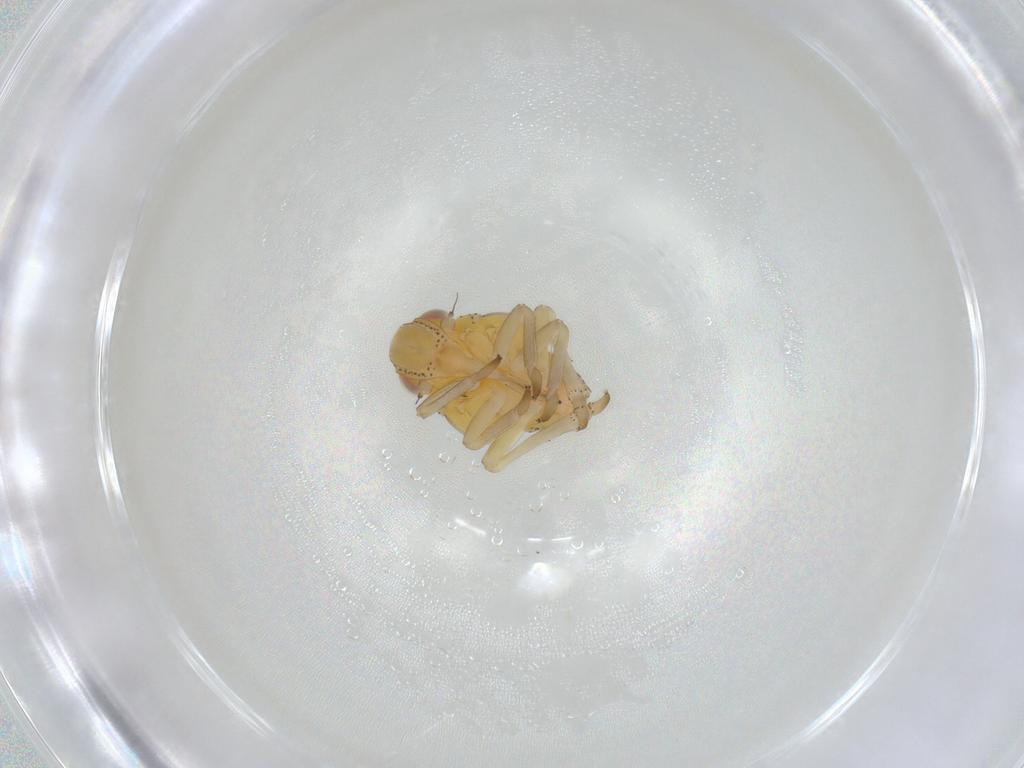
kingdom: Animalia
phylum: Arthropoda
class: Insecta
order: Hemiptera
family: Tropiduchidae
